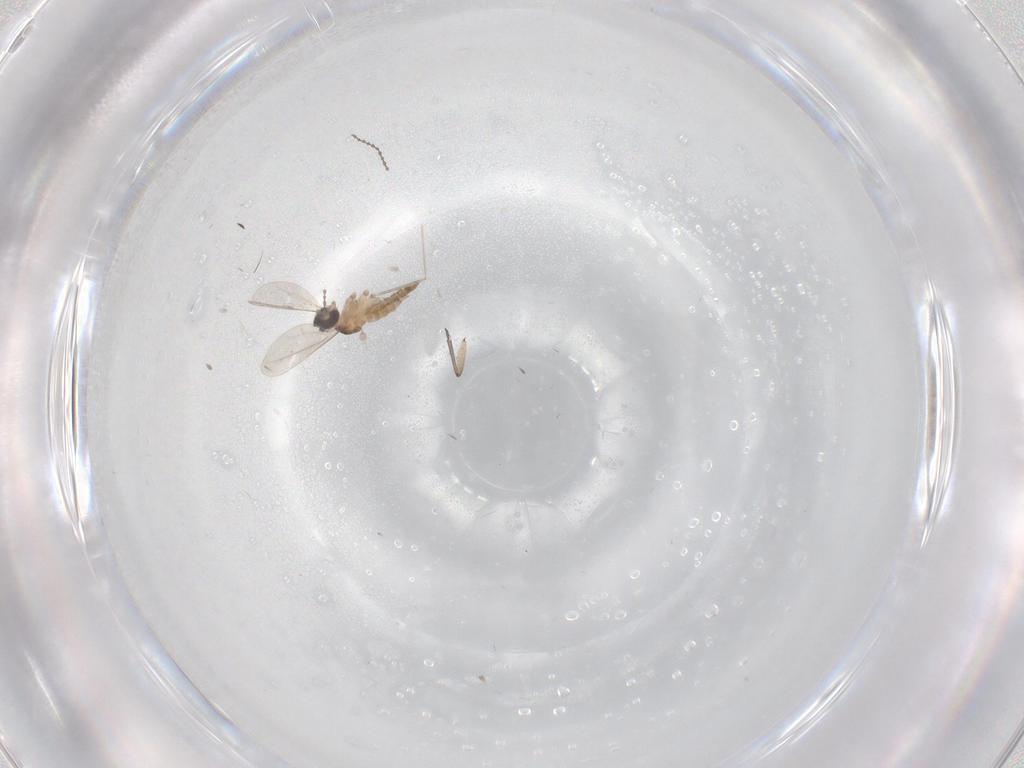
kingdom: Animalia
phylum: Arthropoda
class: Insecta
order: Diptera
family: Cecidomyiidae
